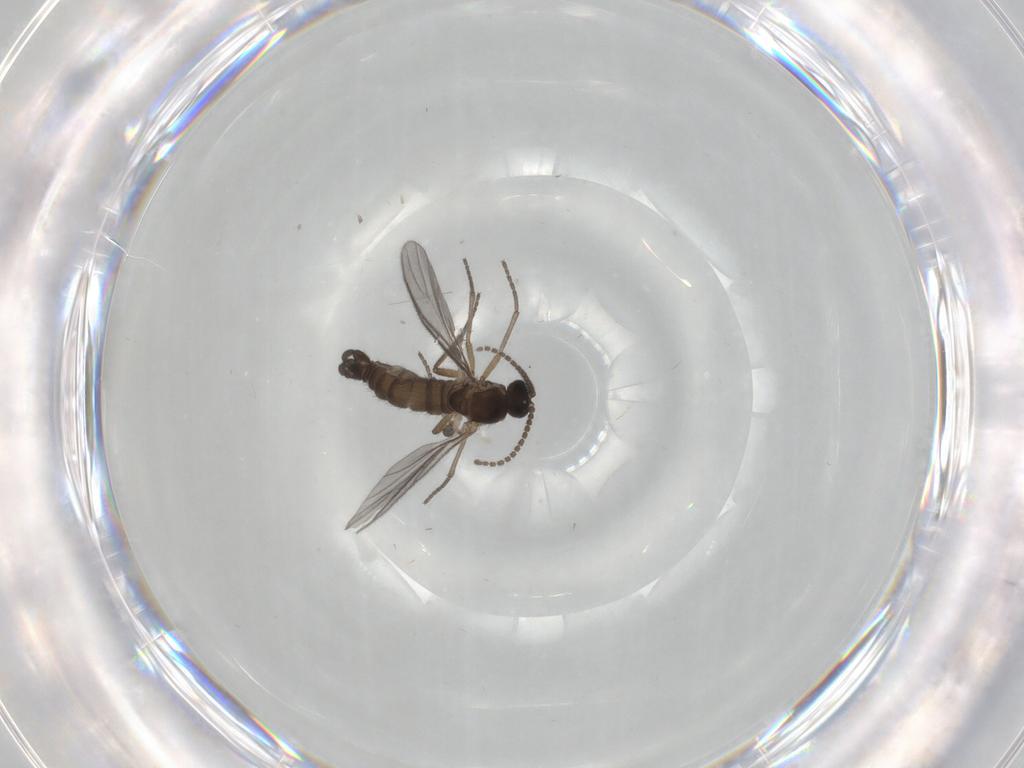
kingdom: Animalia
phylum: Arthropoda
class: Insecta
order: Diptera
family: Sciaridae
